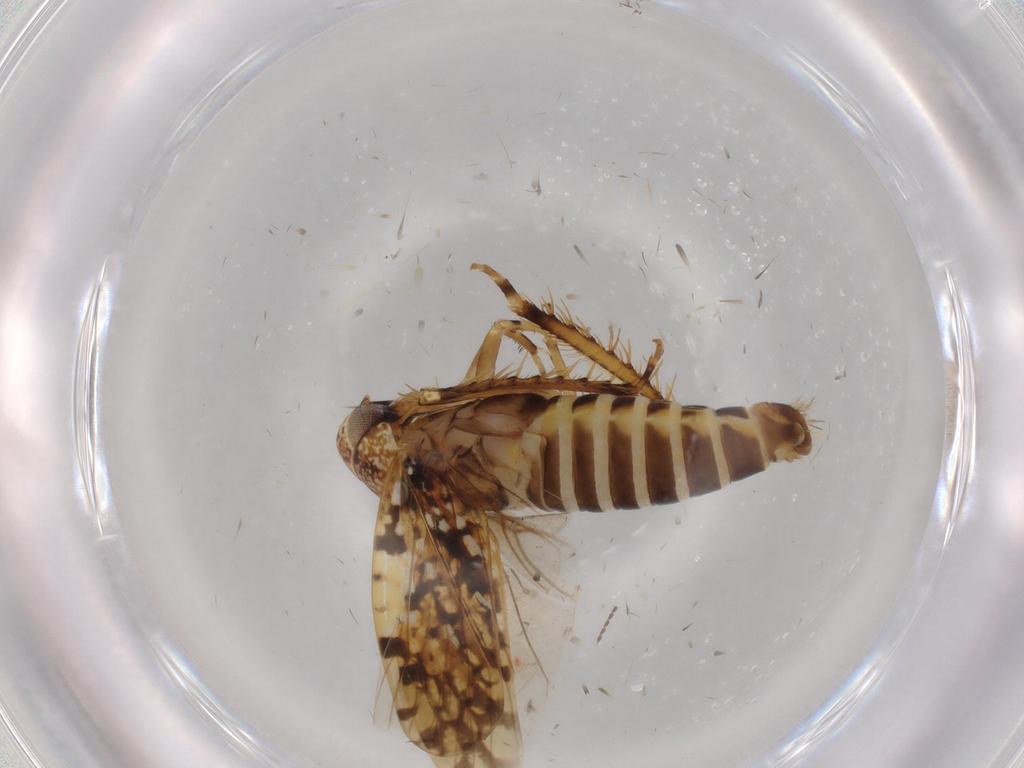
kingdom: Animalia
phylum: Arthropoda
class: Insecta
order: Hemiptera
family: Cicadellidae
